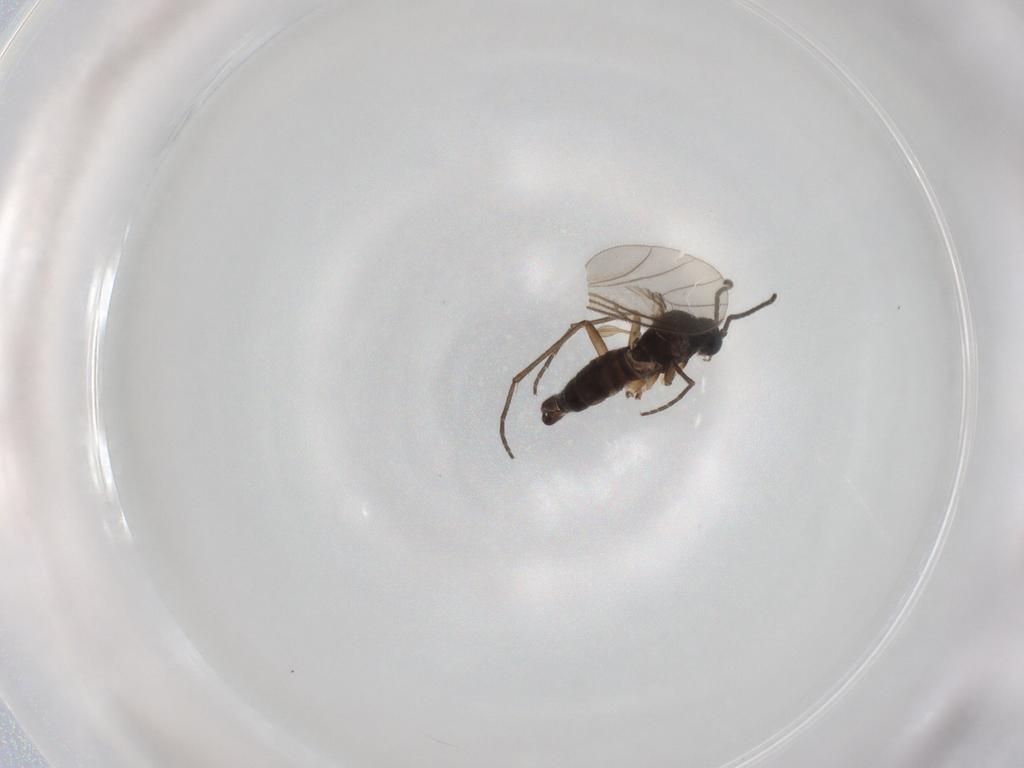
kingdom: Animalia
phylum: Arthropoda
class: Insecta
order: Diptera
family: Sciaridae
